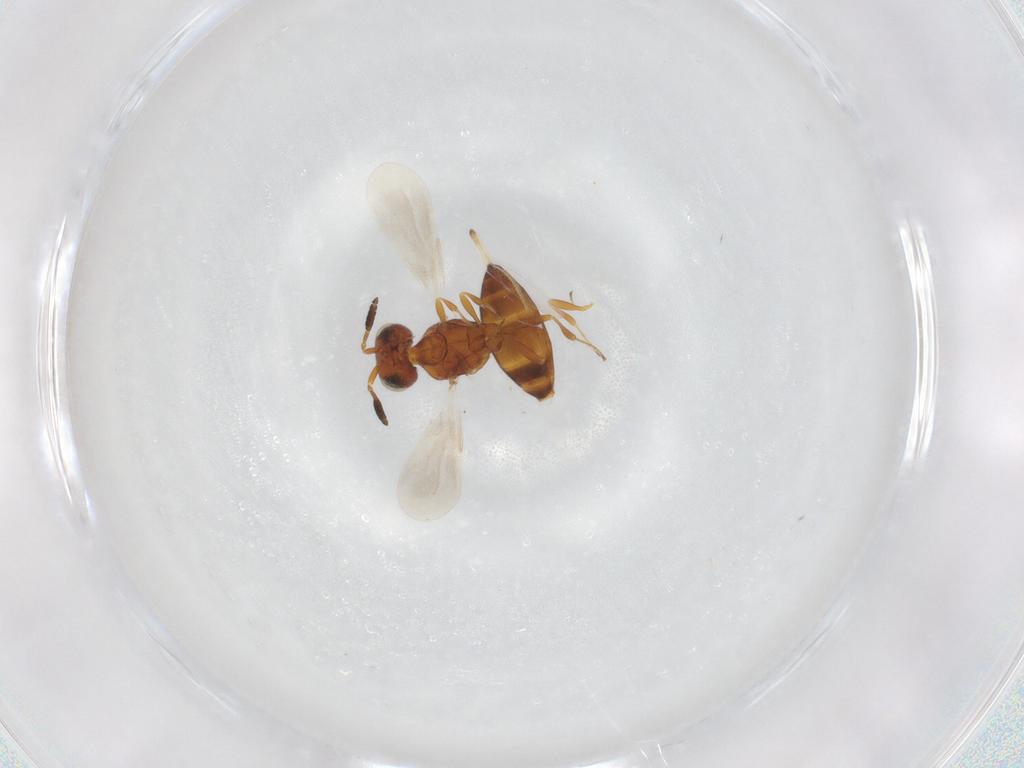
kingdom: Animalia
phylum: Arthropoda
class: Insecta
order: Hymenoptera
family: Scelionidae
